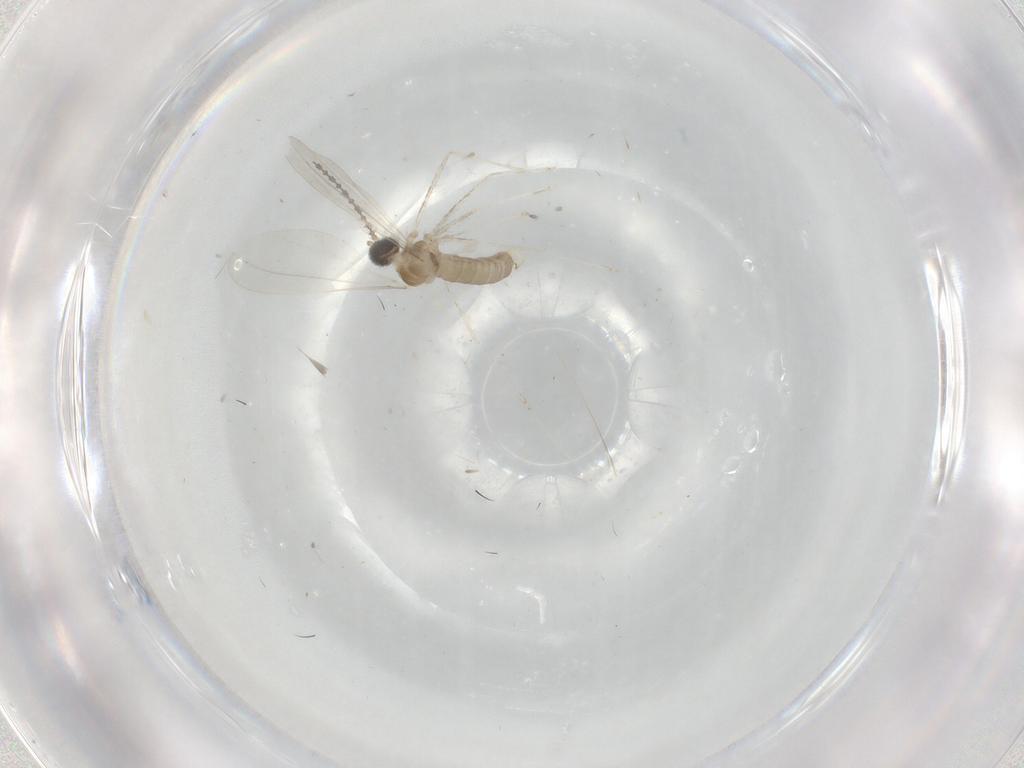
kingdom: Animalia
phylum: Arthropoda
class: Insecta
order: Diptera
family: Cecidomyiidae
